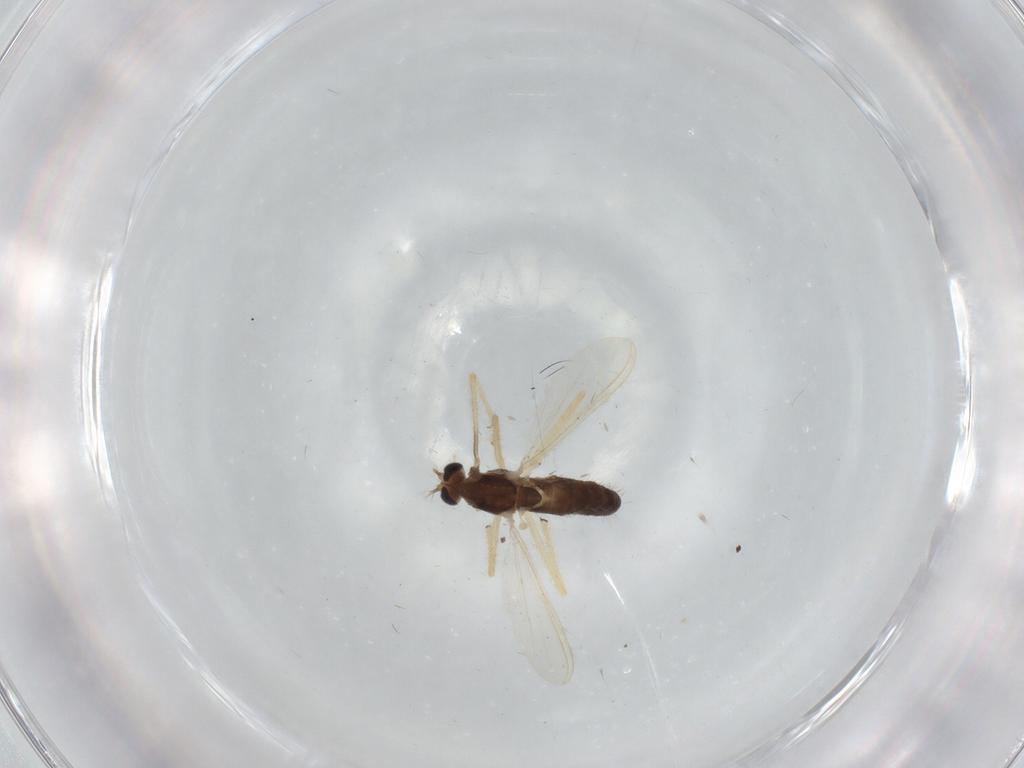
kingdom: Animalia
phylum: Arthropoda
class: Insecta
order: Diptera
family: Chironomidae
